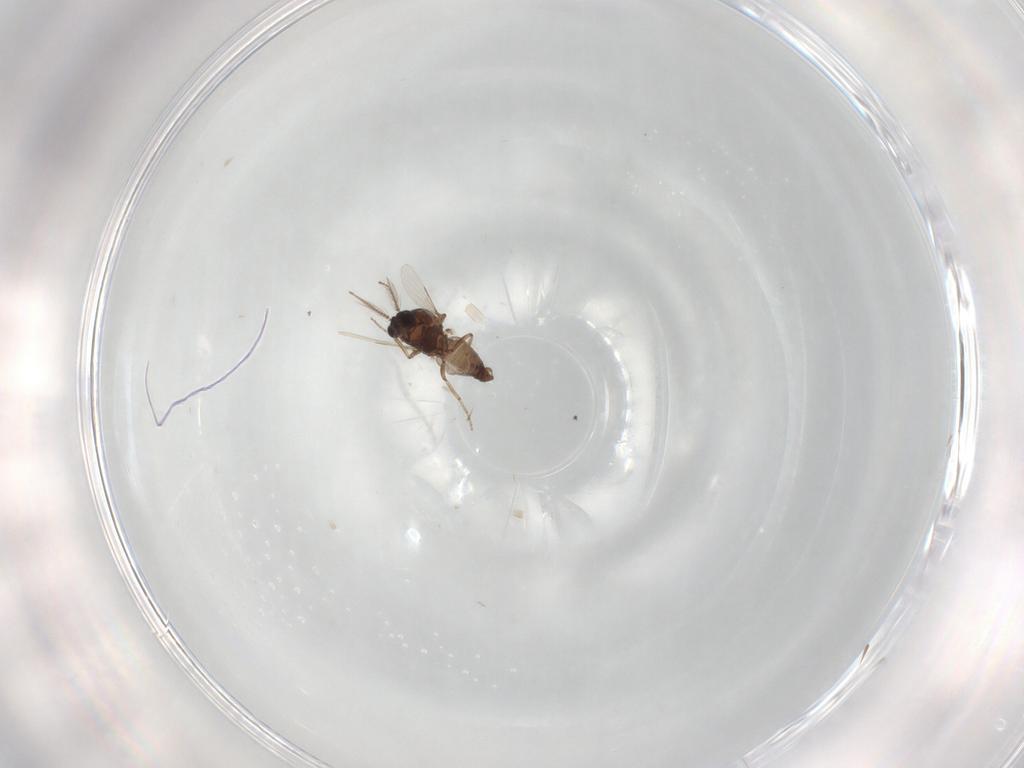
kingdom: Animalia
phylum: Arthropoda
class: Insecta
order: Diptera
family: Ceratopogonidae
